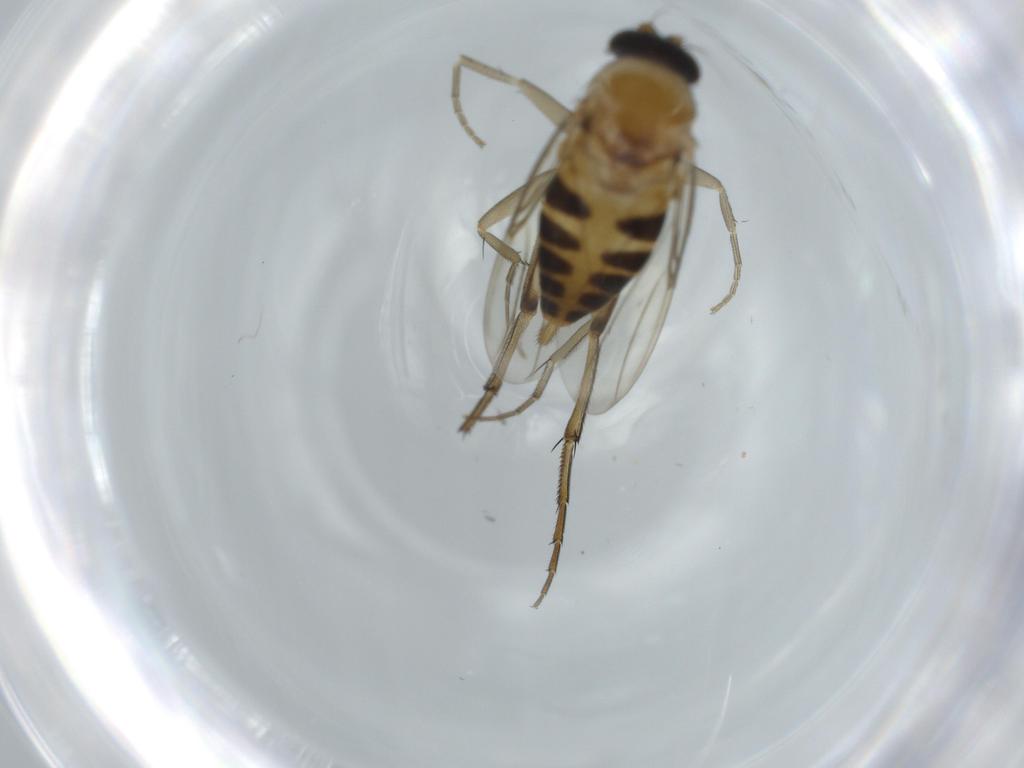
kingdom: Animalia
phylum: Arthropoda
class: Insecta
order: Diptera
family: Phoridae
